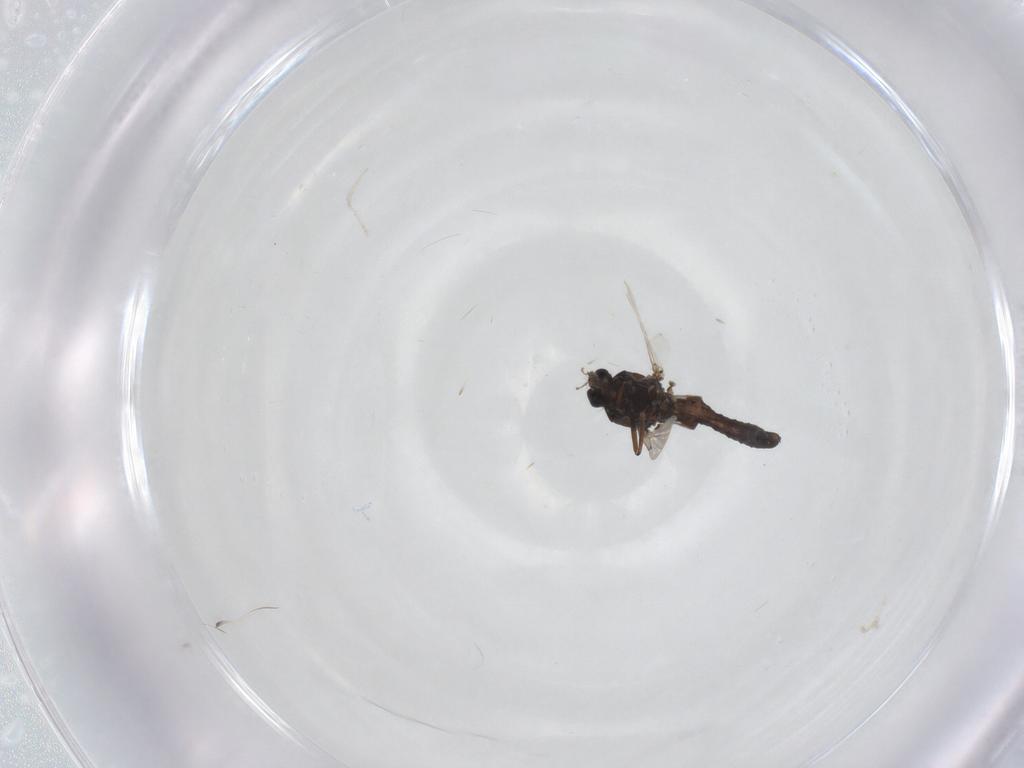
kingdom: Animalia
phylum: Arthropoda
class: Insecta
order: Diptera
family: Ceratopogonidae
